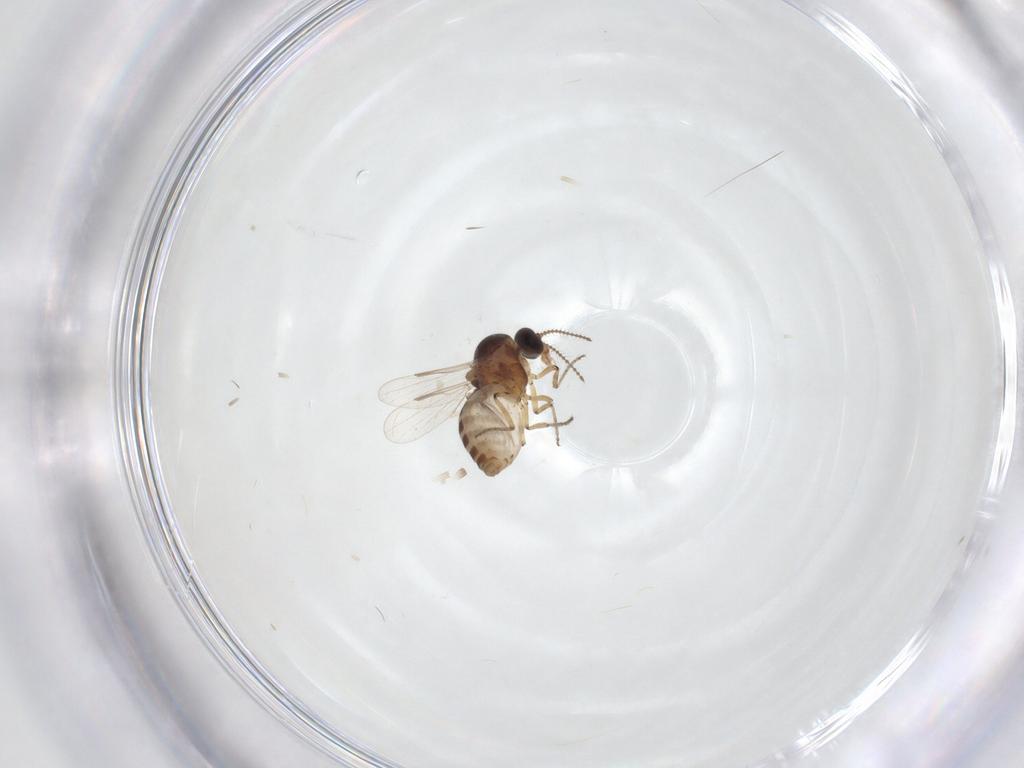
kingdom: Animalia
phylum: Arthropoda
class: Insecta
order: Diptera
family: Ceratopogonidae
